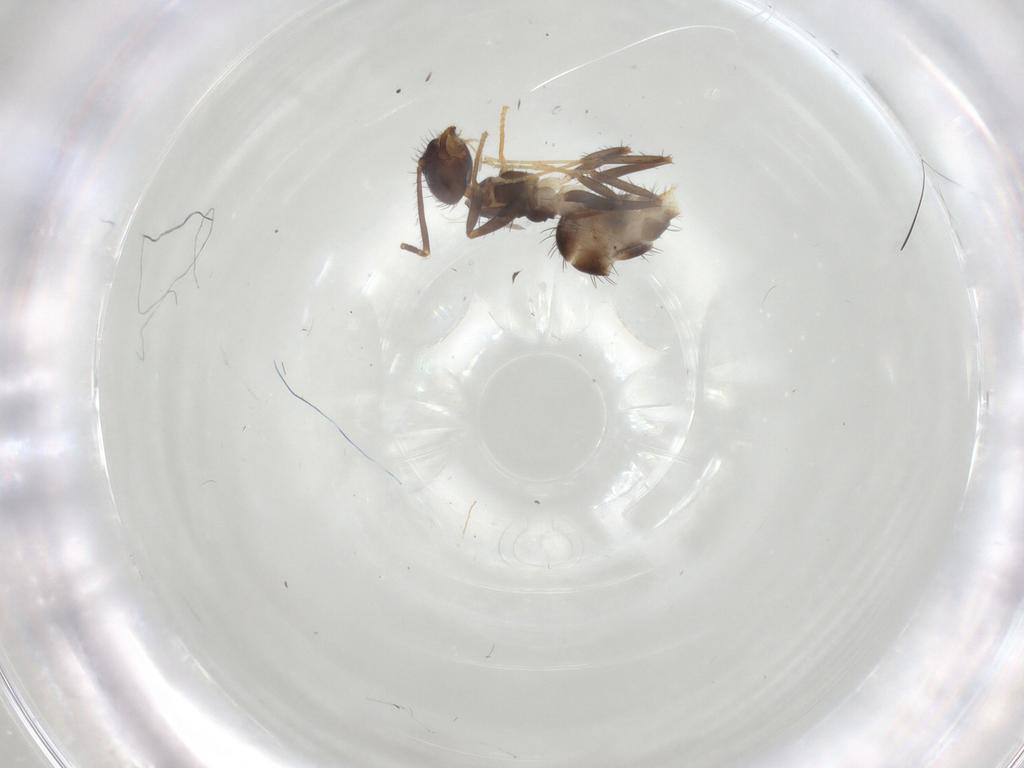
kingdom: Animalia
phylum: Arthropoda
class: Insecta
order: Hymenoptera
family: Formicidae
